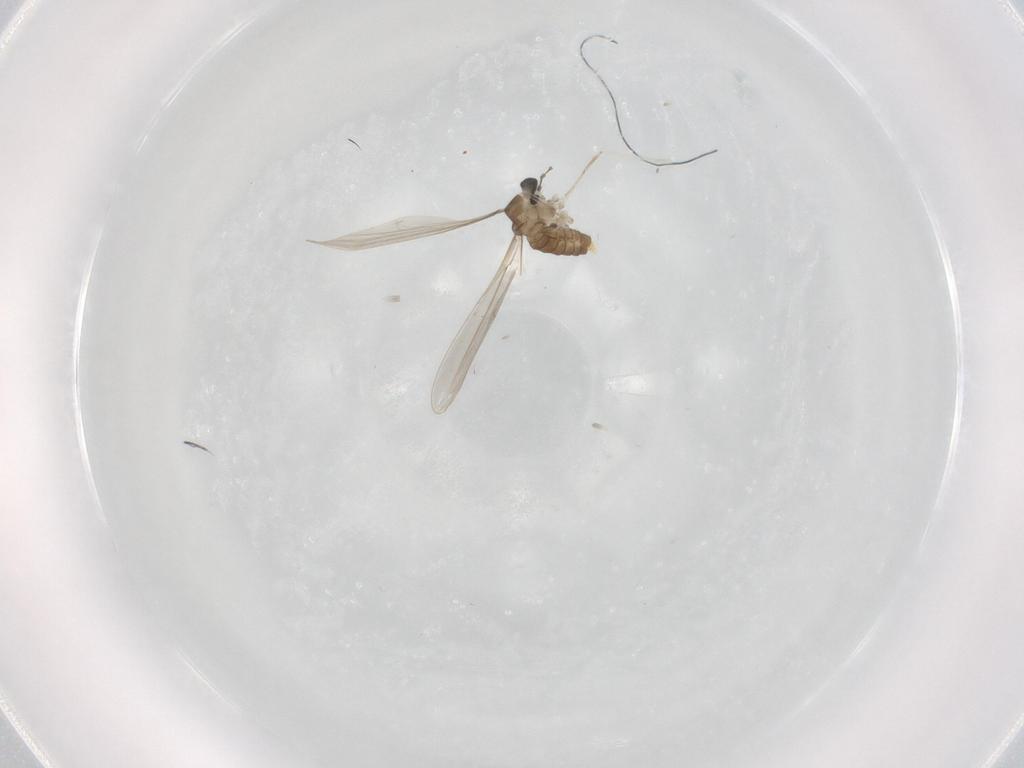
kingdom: Animalia
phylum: Arthropoda
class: Insecta
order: Diptera
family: Cecidomyiidae
